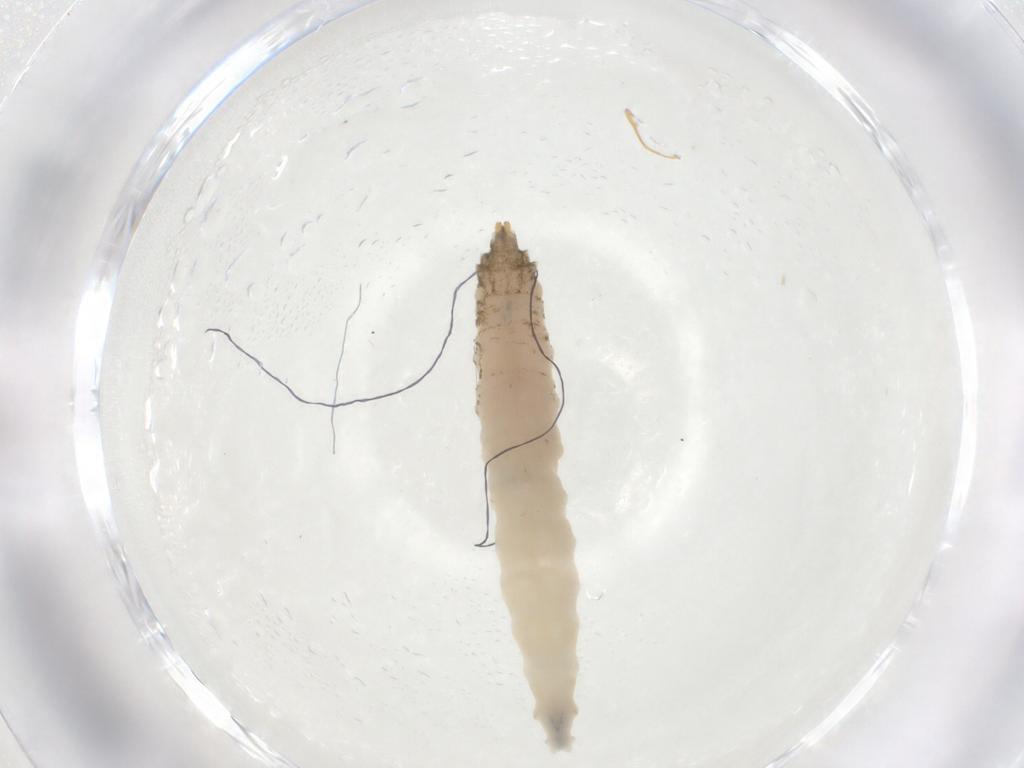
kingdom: Animalia
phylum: Arthropoda
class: Insecta
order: Diptera
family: Drosophilidae
